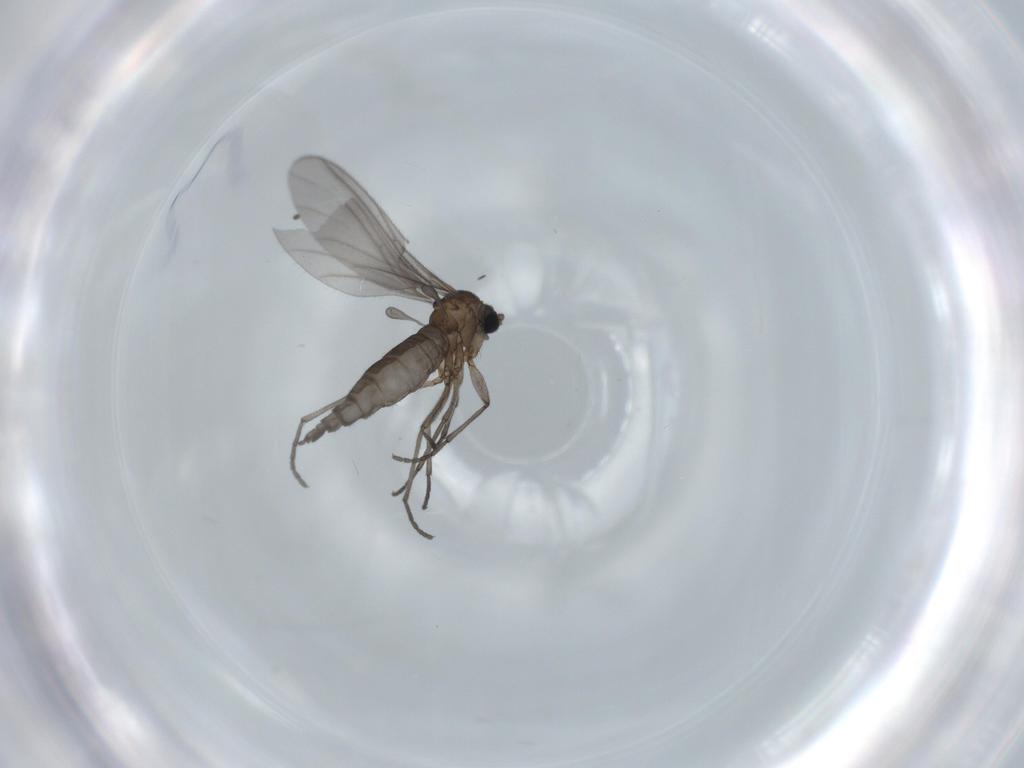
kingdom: Animalia
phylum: Arthropoda
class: Insecta
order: Diptera
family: Sciaridae
